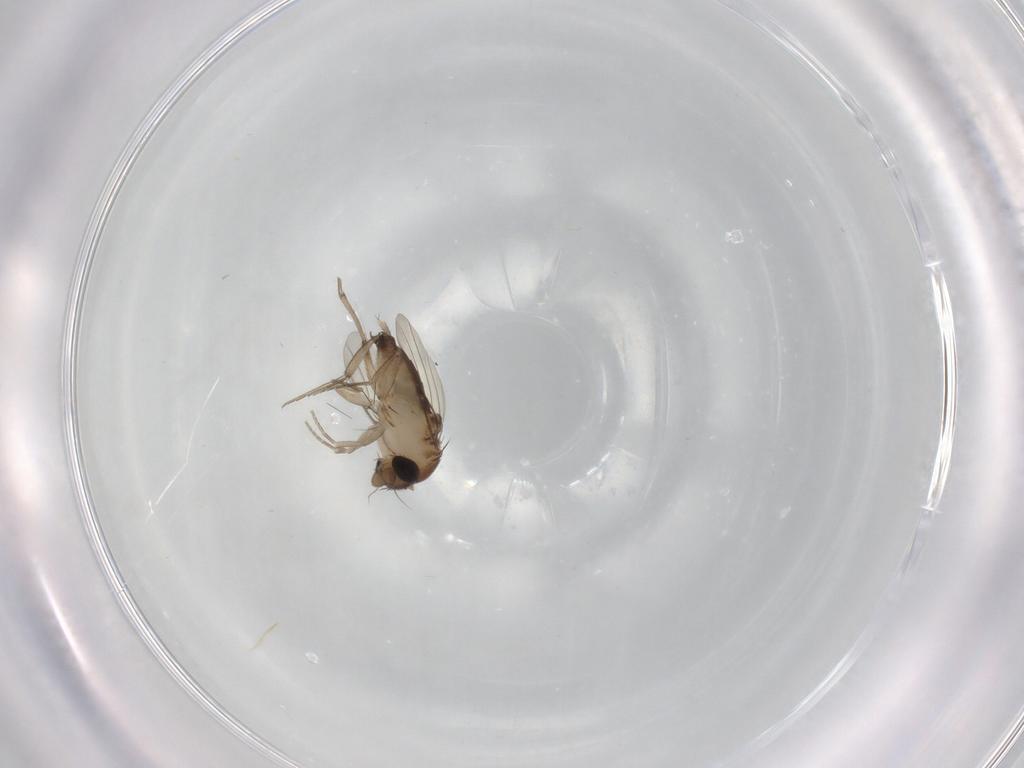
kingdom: Animalia
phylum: Arthropoda
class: Insecta
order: Diptera
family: Phoridae
